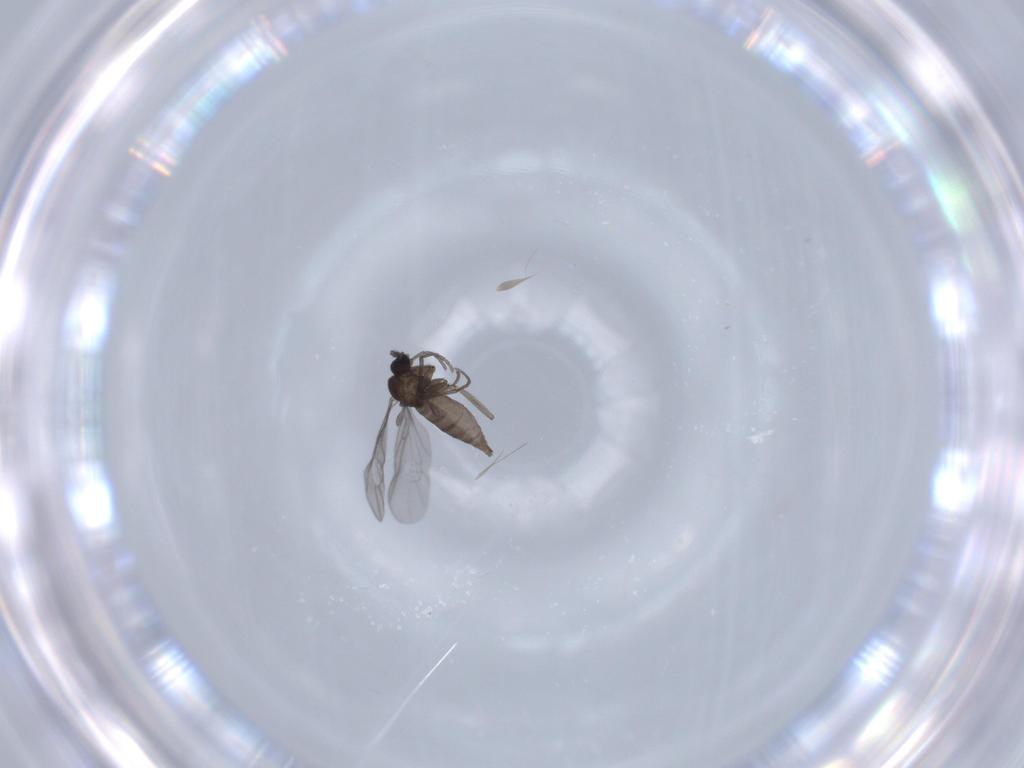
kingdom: Animalia
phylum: Arthropoda
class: Insecta
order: Diptera
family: Sciaridae
